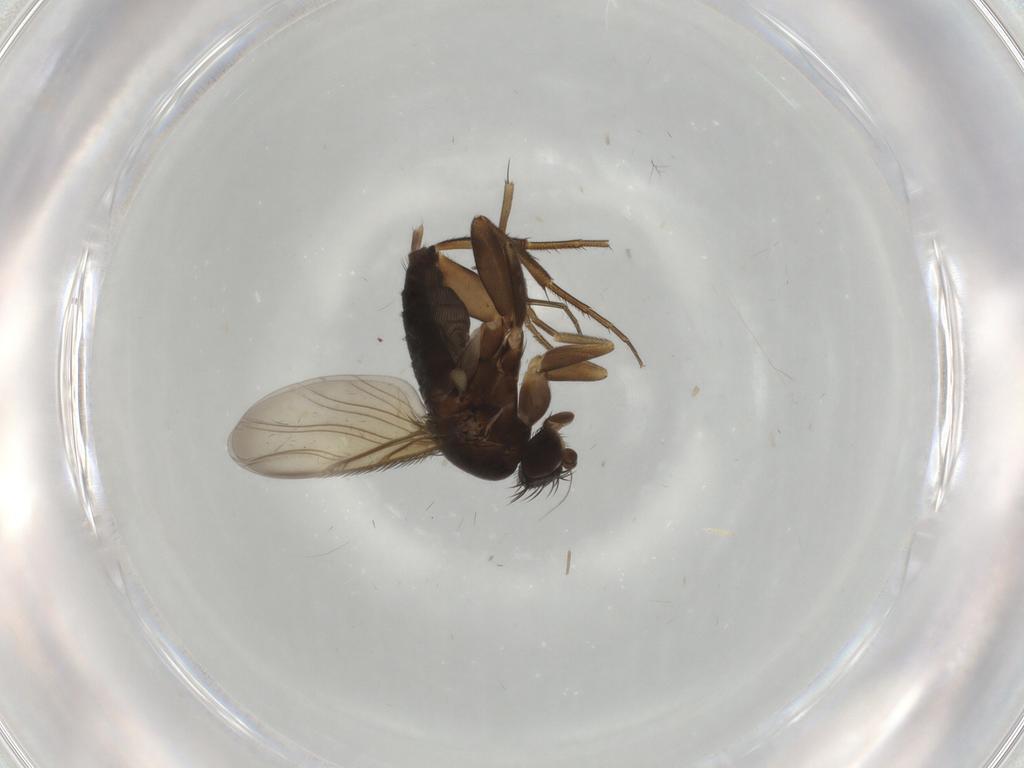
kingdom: Animalia
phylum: Arthropoda
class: Insecta
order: Diptera
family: Phoridae
